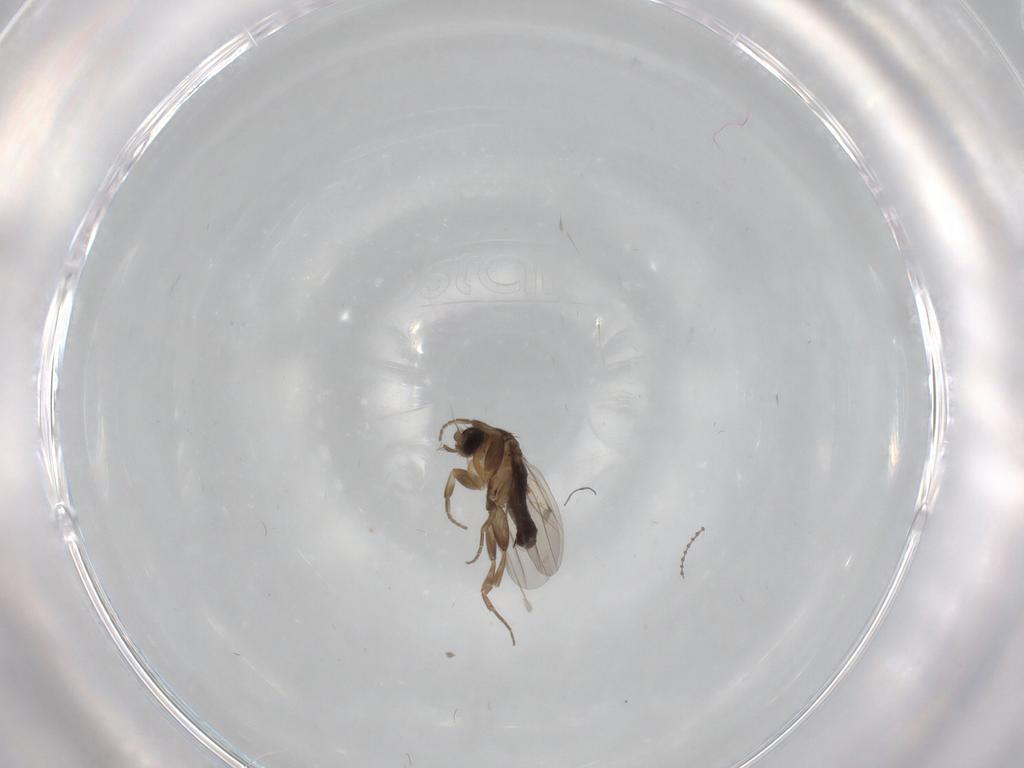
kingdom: Animalia
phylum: Arthropoda
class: Insecta
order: Diptera
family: Phoridae
